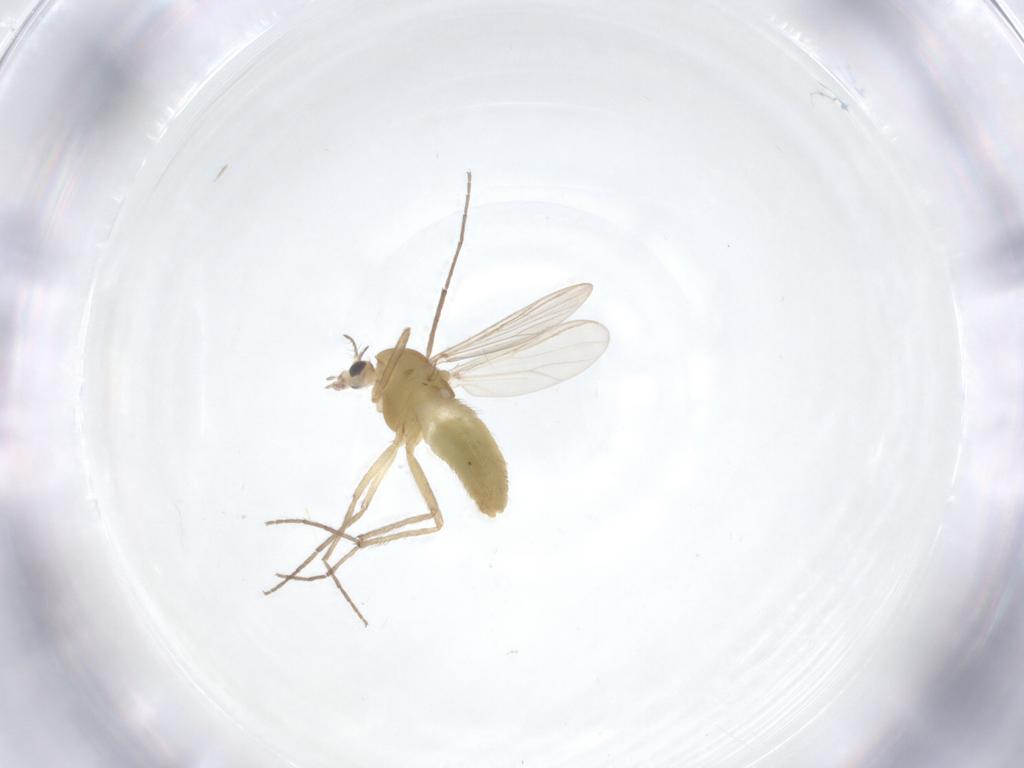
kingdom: Animalia
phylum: Arthropoda
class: Insecta
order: Diptera
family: Chironomidae
